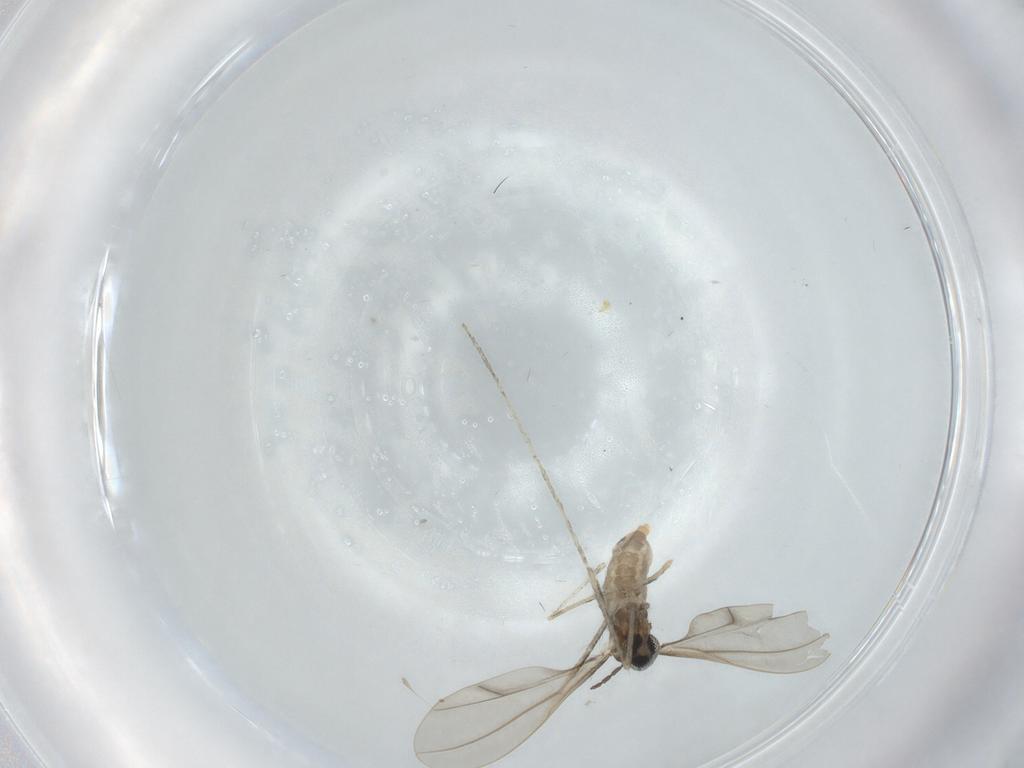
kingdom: Animalia
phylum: Arthropoda
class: Insecta
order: Diptera
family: Cecidomyiidae
